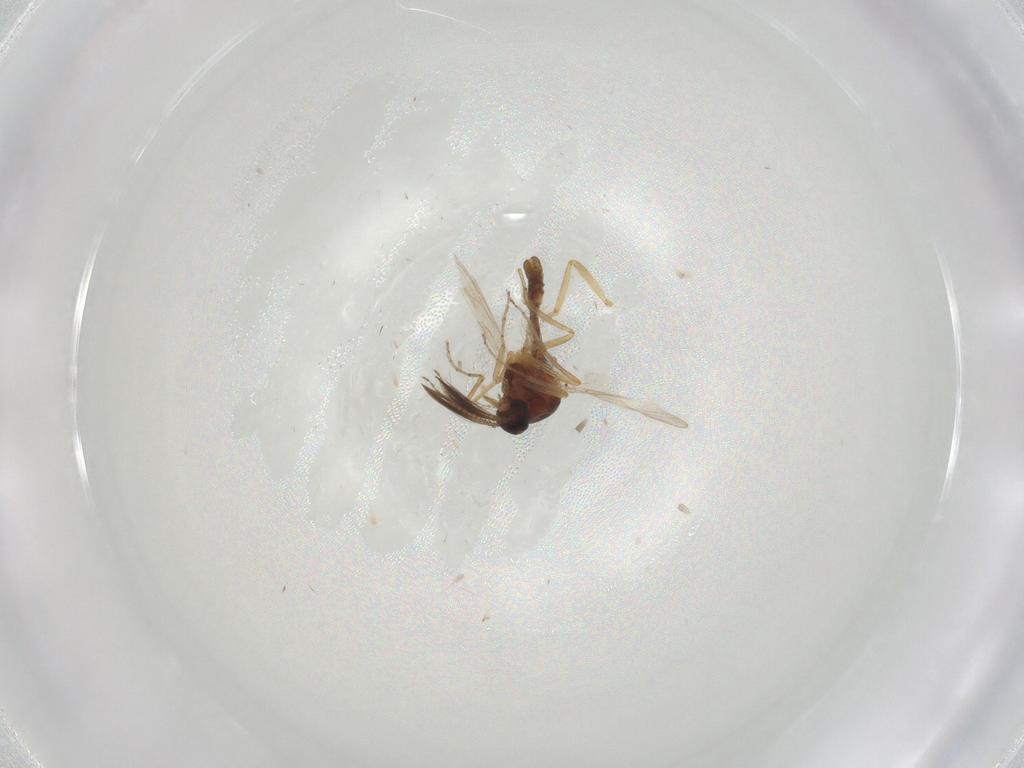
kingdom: Animalia
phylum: Arthropoda
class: Insecta
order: Diptera
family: Ceratopogonidae
